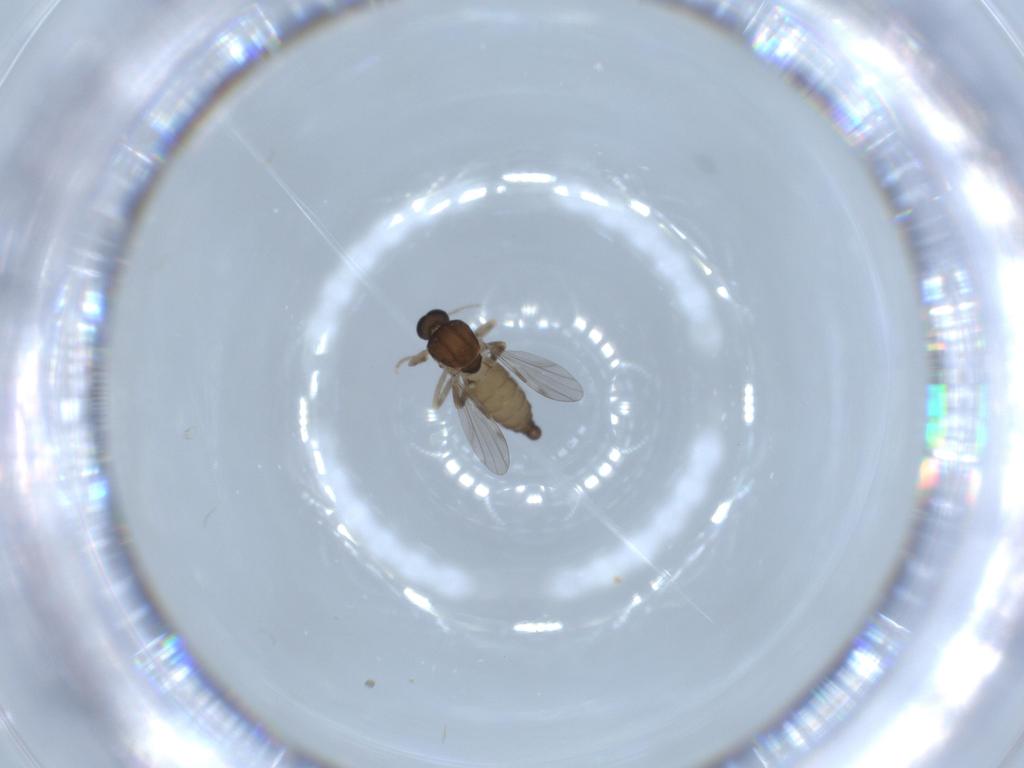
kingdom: Animalia
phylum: Arthropoda
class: Insecta
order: Diptera
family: Ceratopogonidae
